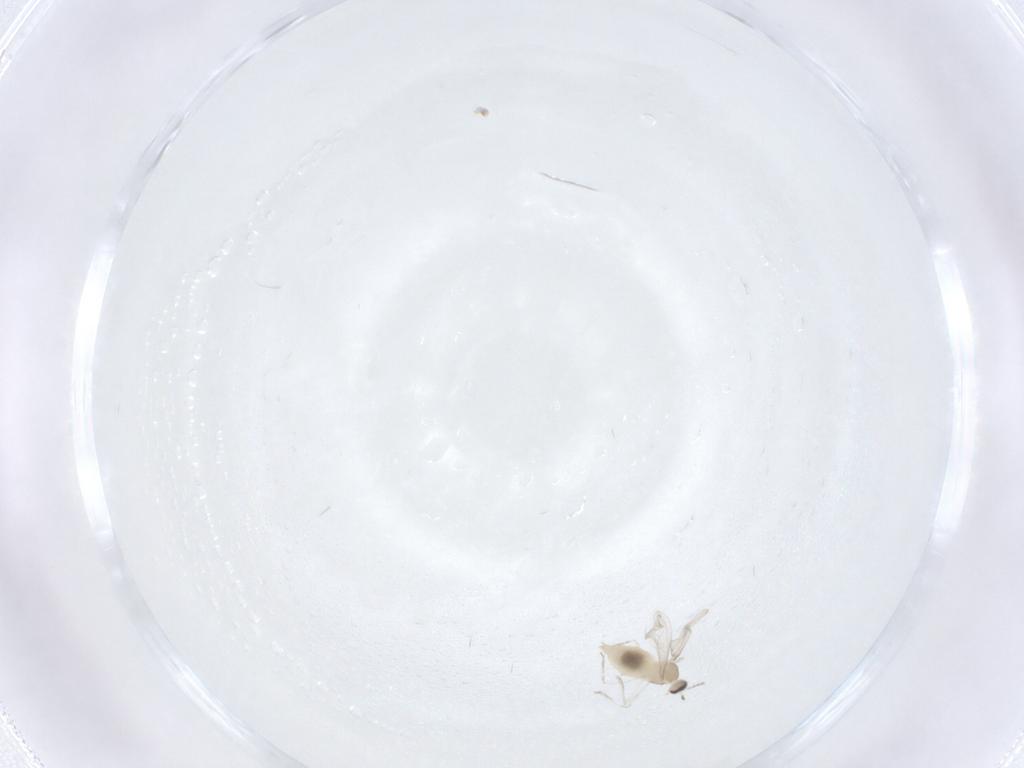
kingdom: Animalia
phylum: Arthropoda
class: Insecta
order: Diptera
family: Cecidomyiidae
